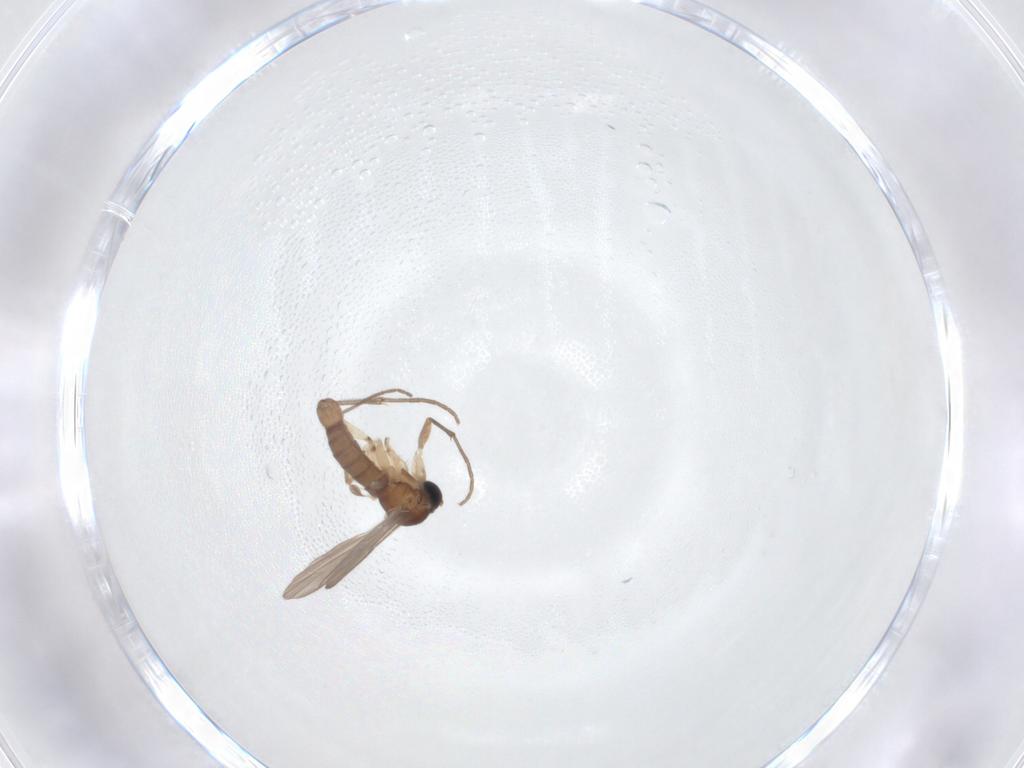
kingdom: Animalia
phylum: Arthropoda
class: Insecta
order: Diptera
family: Sciaridae
